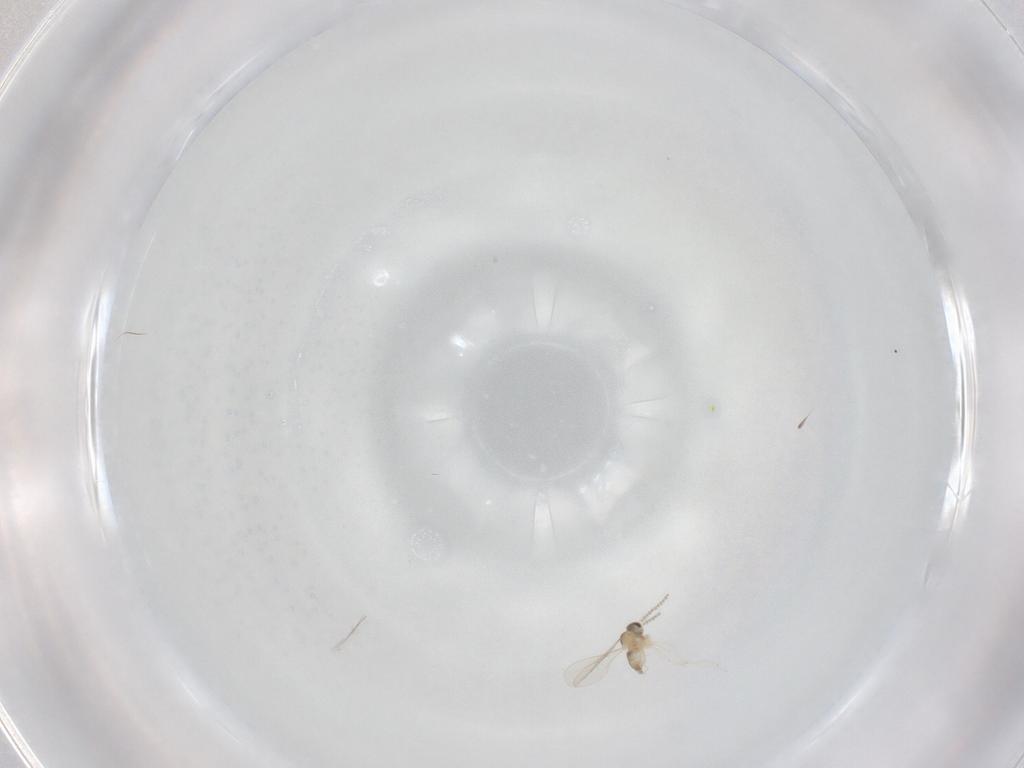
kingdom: Animalia
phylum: Arthropoda
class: Insecta
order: Diptera
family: Cecidomyiidae
